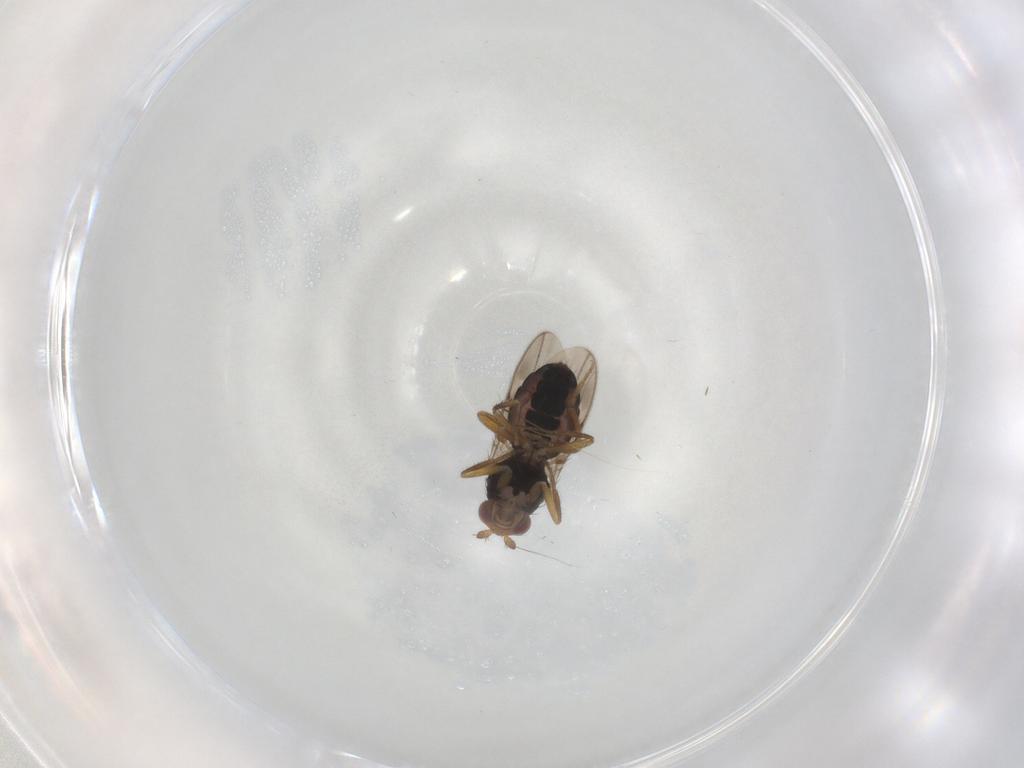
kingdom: Animalia
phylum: Arthropoda
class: Insecta
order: Diptera
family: Sphaeroceridae
